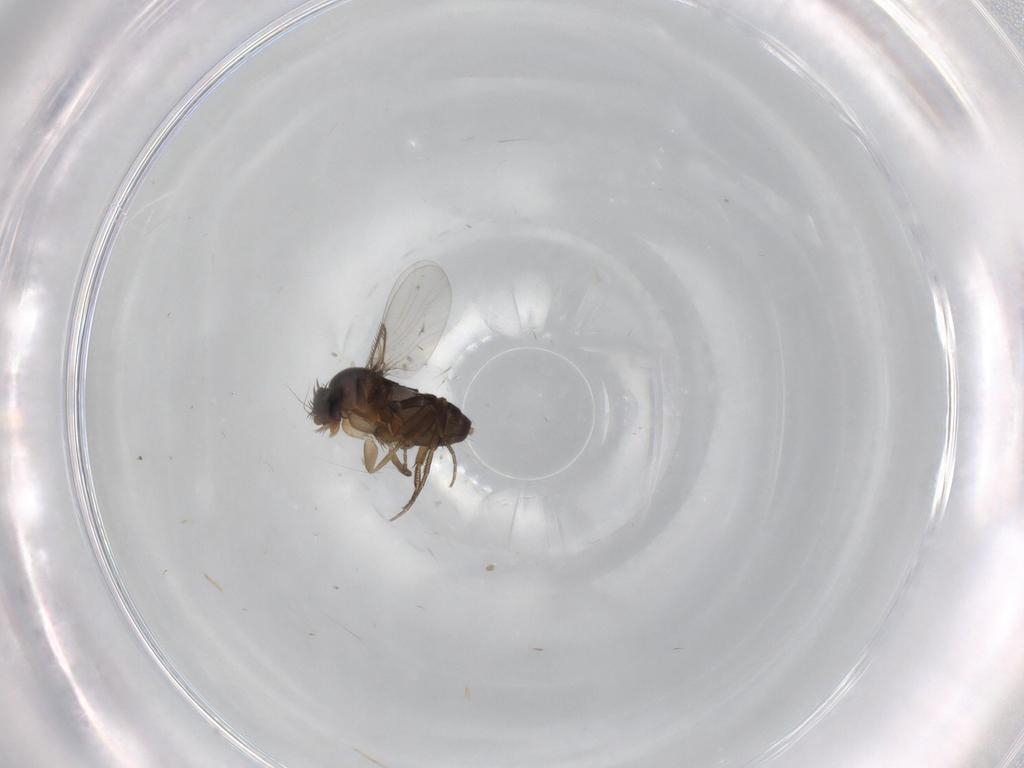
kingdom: Animalia
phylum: Arthropoda
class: Insecta
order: Diptera
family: Phoridae
